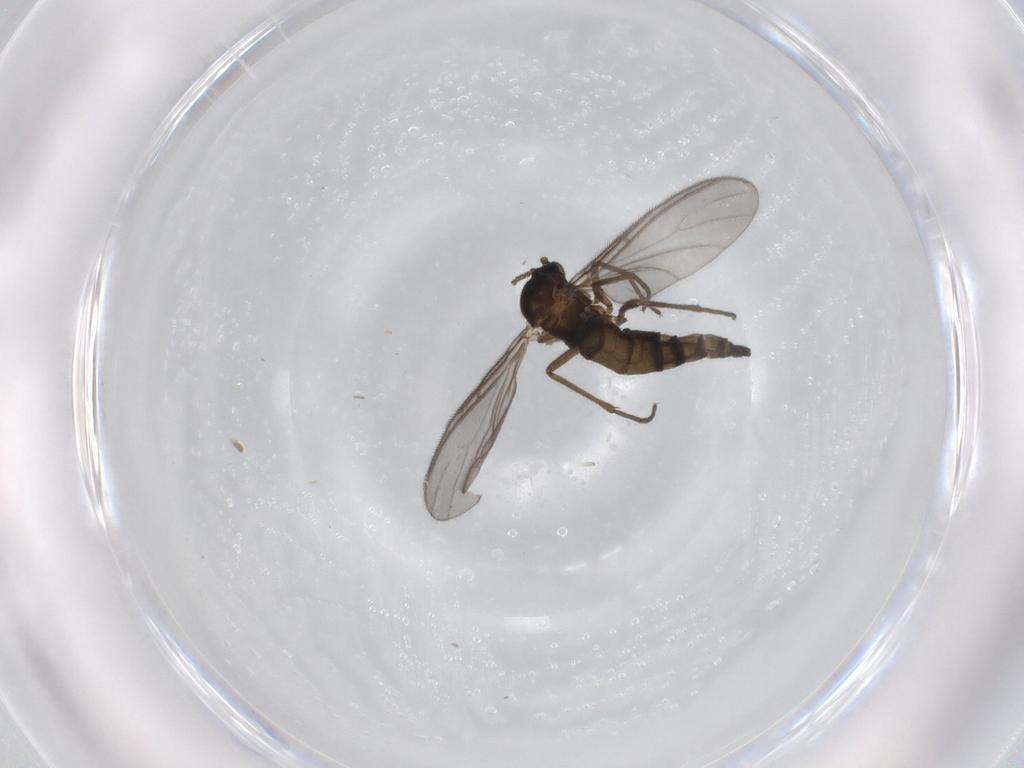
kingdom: Animalia
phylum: Arthropoda
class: Insecta
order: Diptera
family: Sciaridae
